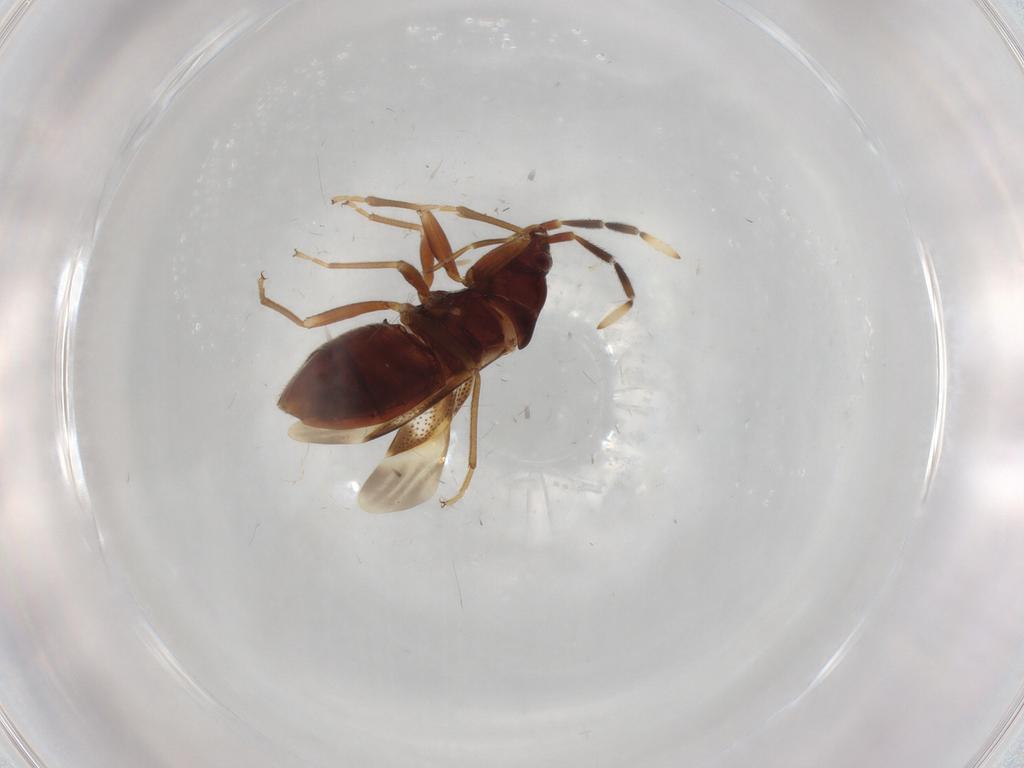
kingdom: Animalia
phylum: Arthropoda
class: Insecta
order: Hemiptera
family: Rhyparochromidae
